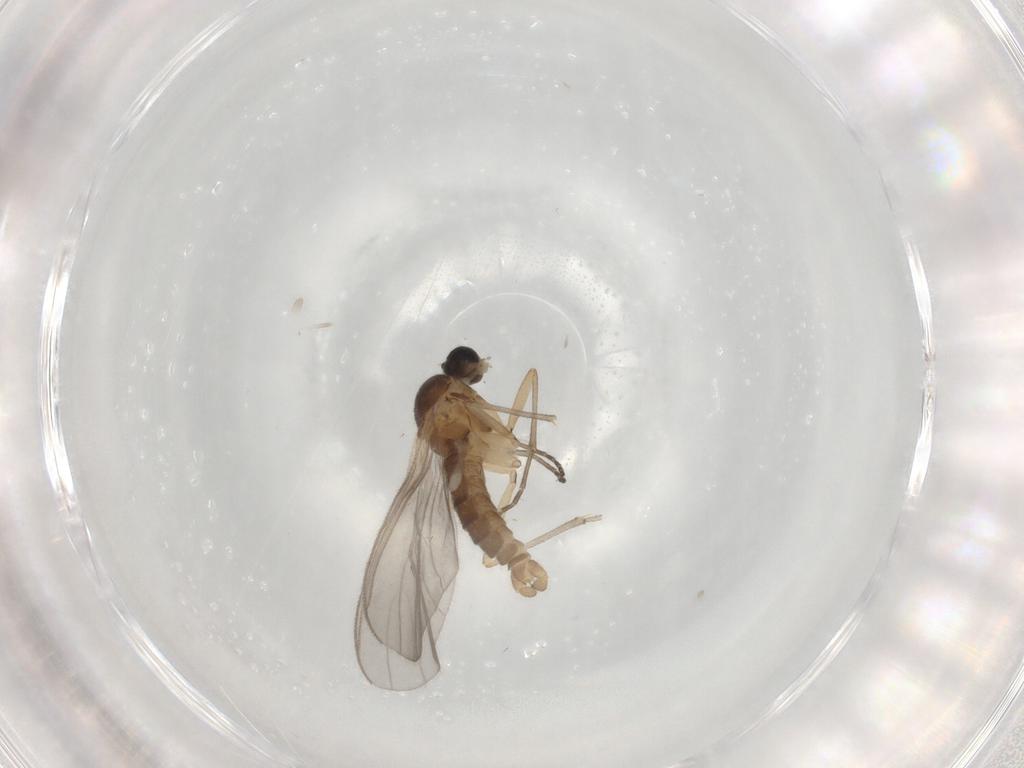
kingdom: Animalia
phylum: Arthropoda
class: Insecta
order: Diptera
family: Sciaridae
